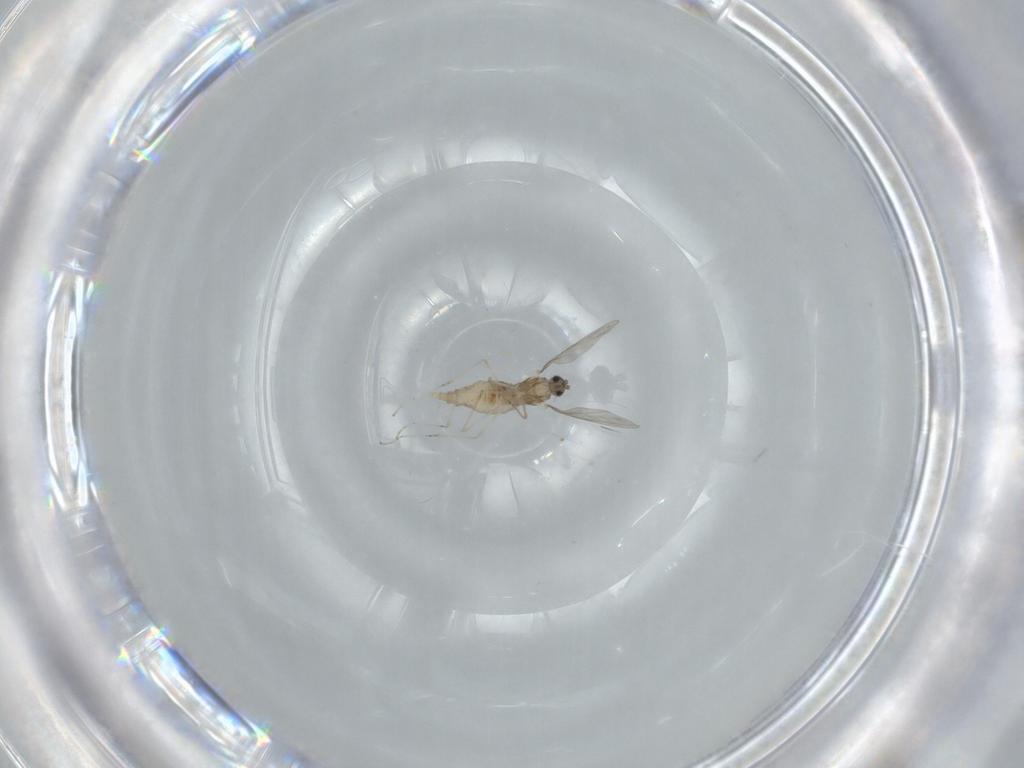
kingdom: Animalia
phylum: Arthropoda
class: Insecta
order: Diptera
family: Cecidomyiidae
